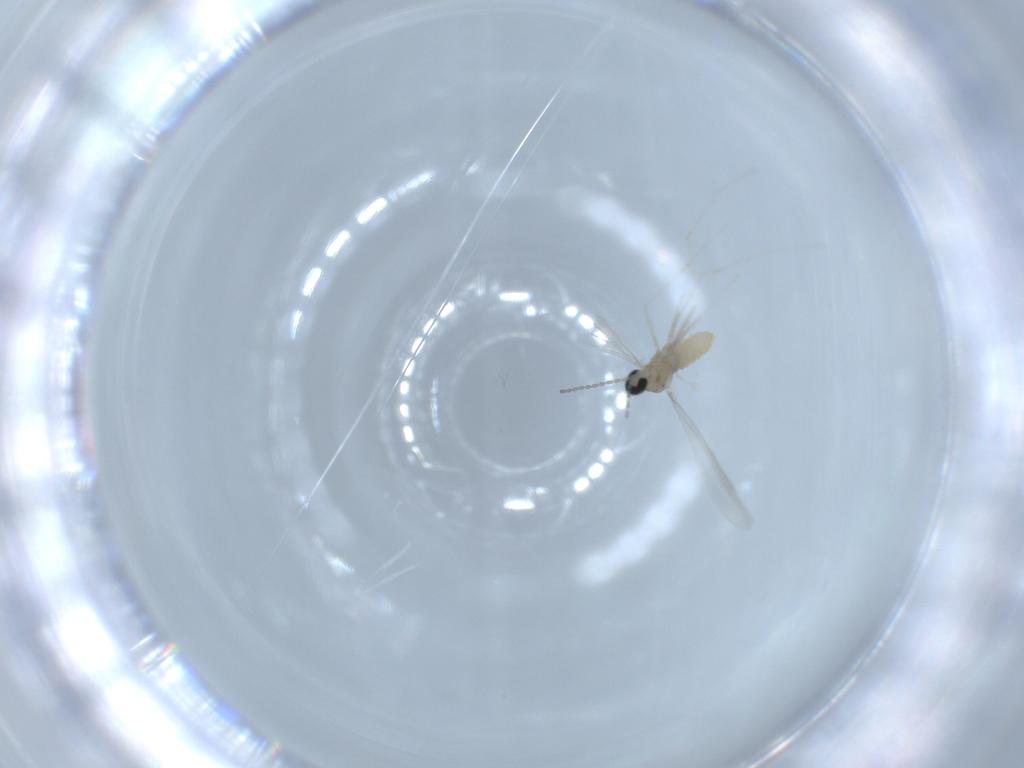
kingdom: Animalia
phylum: Arthropoda
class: Insecta
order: Diptera
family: Cecidomyiidae
